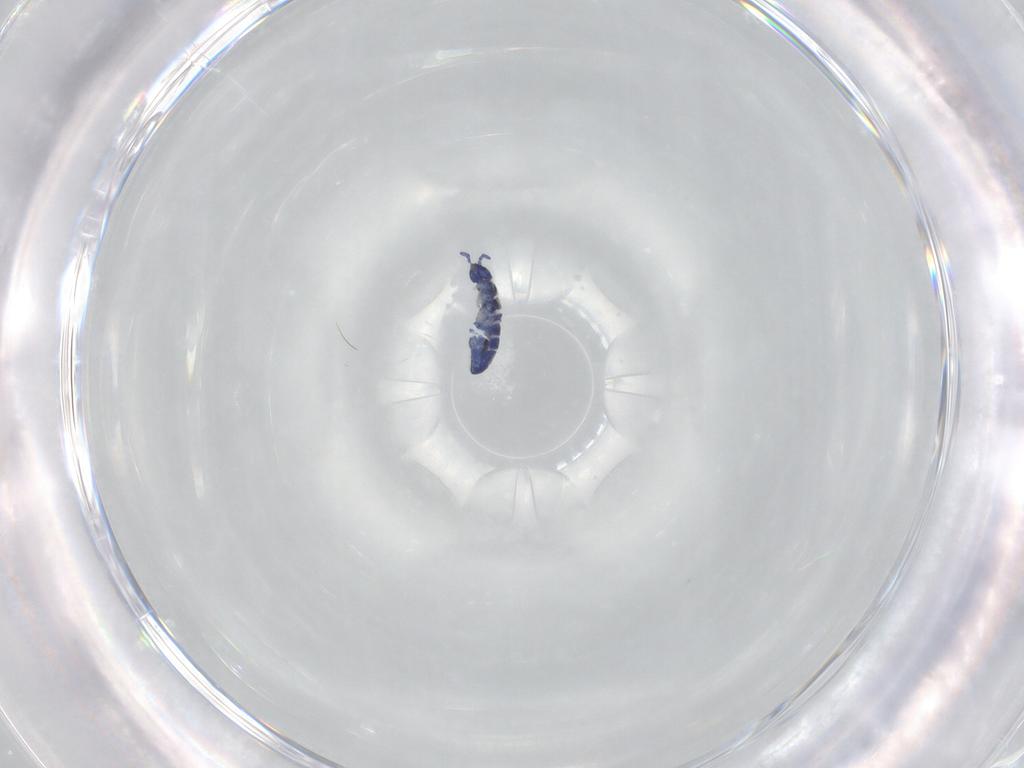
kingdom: Animalia
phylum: Arthropoda
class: Collembola
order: Entomobryomorpha
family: Entomobryidae
